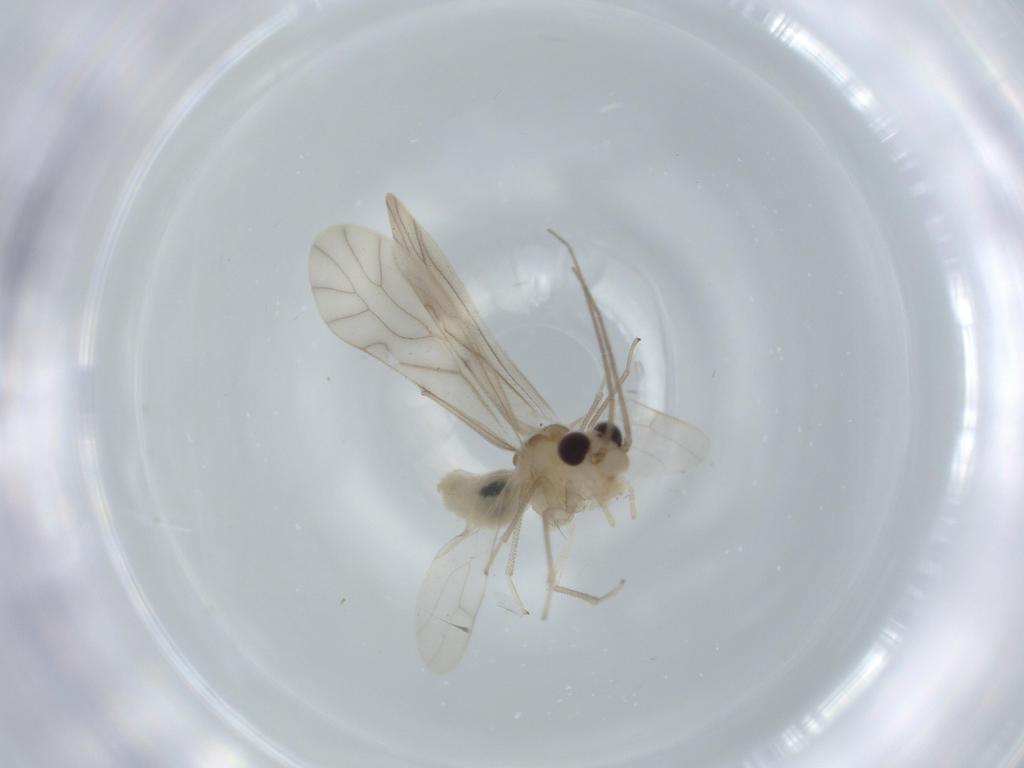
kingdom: Animalia
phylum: Arthropoda
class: Insecta
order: Psocodea
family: Caeciliusidae
